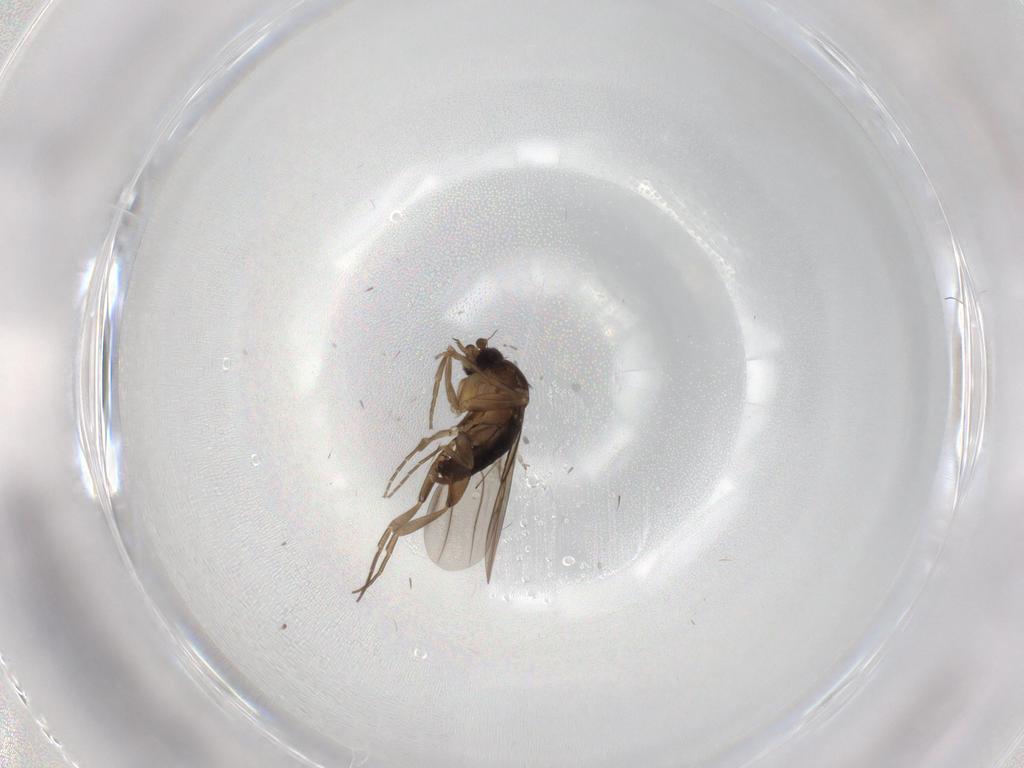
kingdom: Animalia
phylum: Arthropoda
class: Insecta
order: Diptera
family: Phoridae
